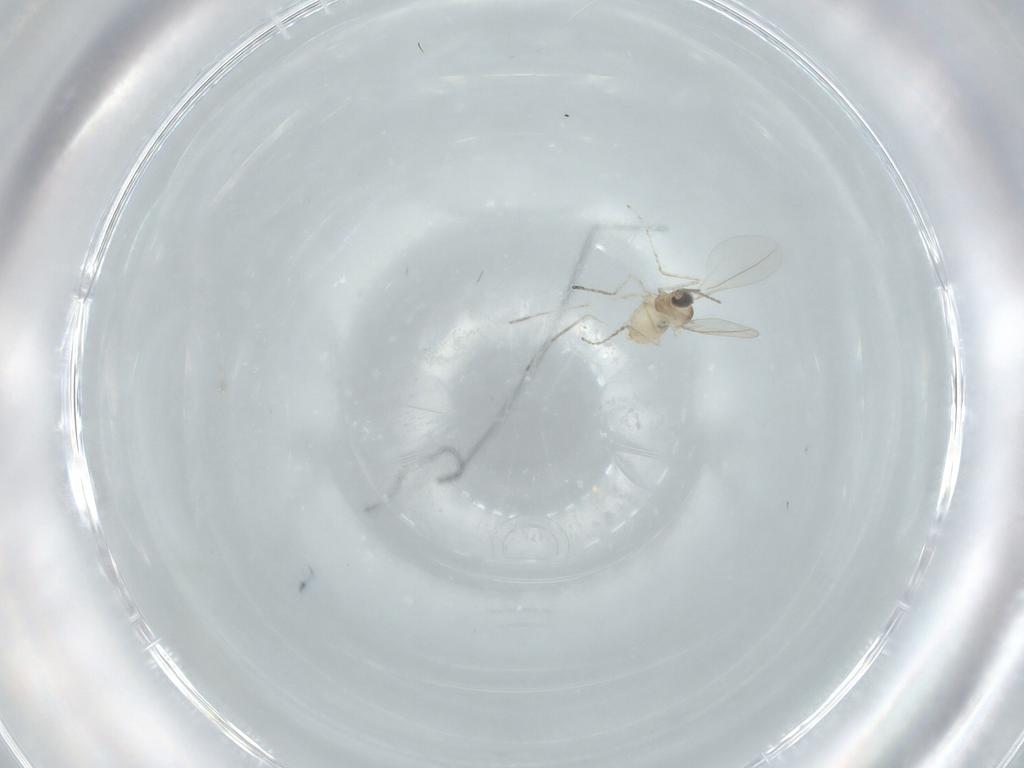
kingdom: Animalia
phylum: Arthropoda
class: Insecta
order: Diptera
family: Cecidomyiidae
